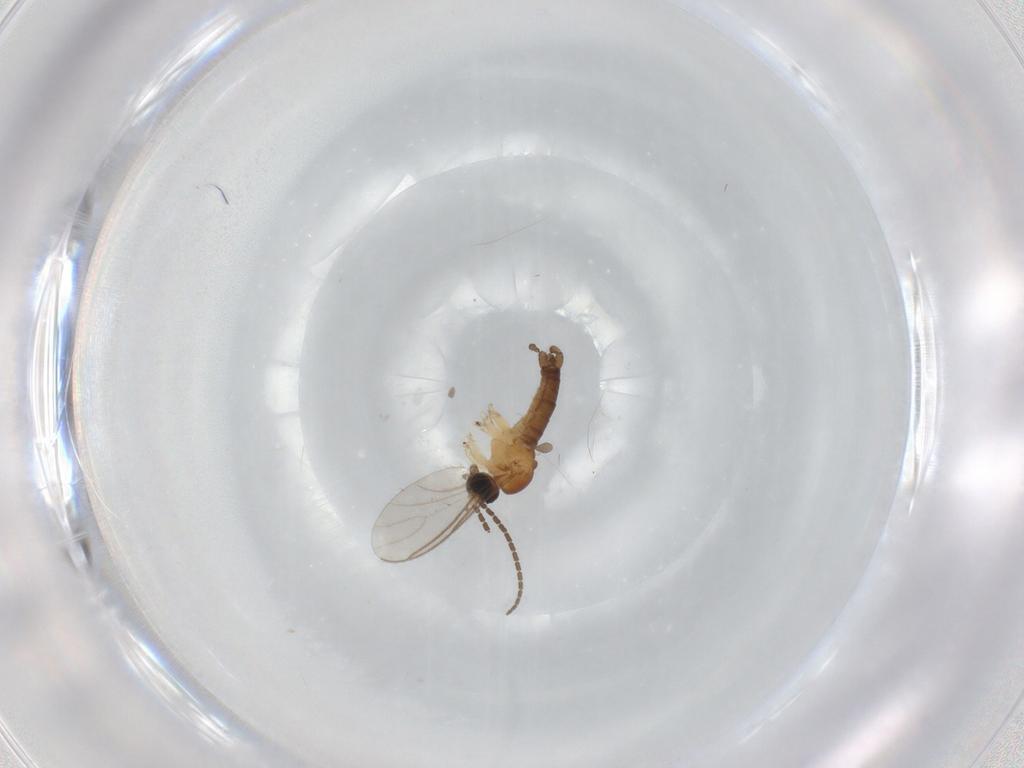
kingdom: Animalia
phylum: Arthropoda
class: Insecta
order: Diptera
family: Sciaridae
